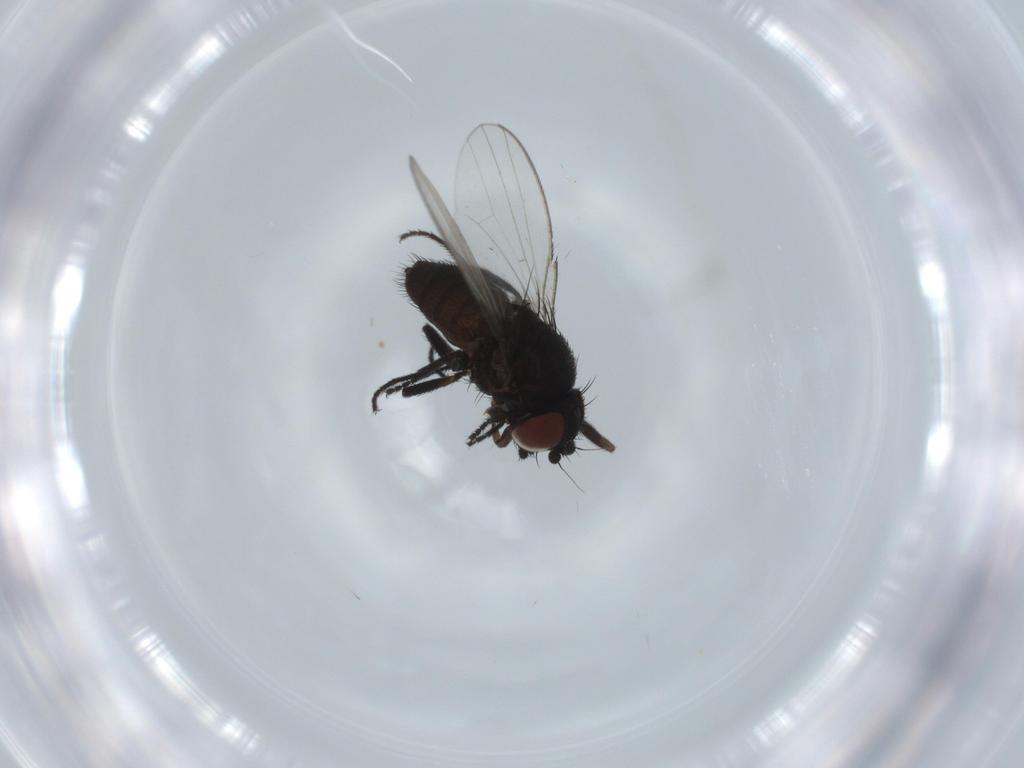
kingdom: Animalia
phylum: Arthropoda
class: Insecta
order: Diptera
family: Milichiidae
